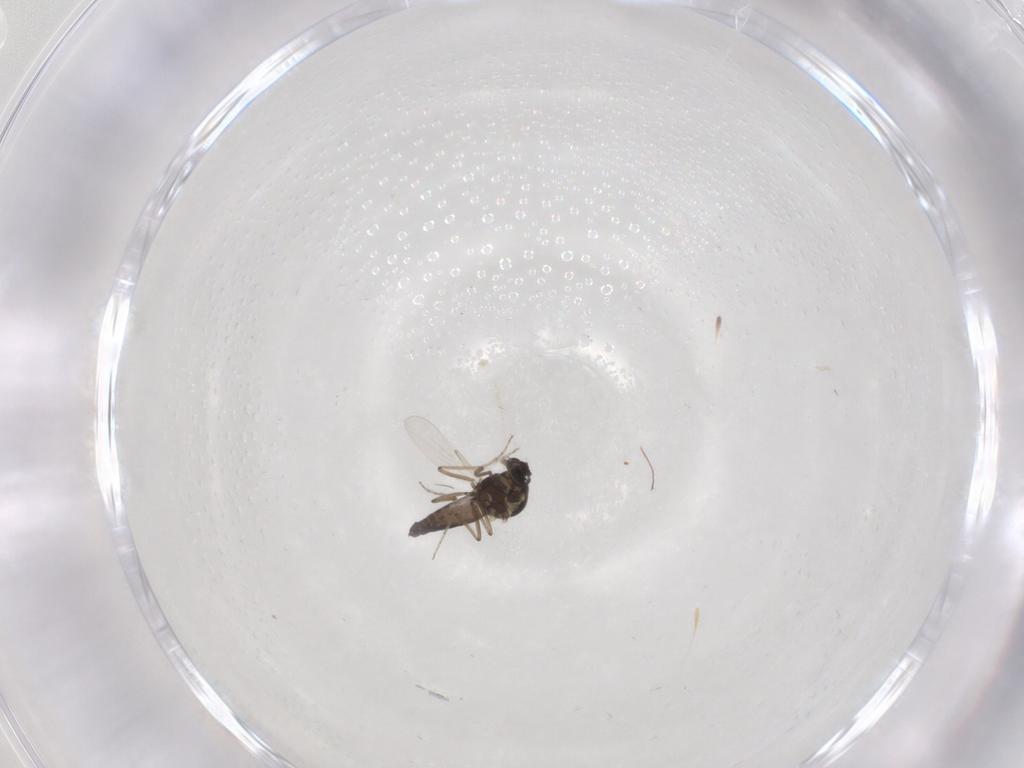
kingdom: Animalia
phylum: Arthropoda
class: Insecta
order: Diptera
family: Ceratopogonidae
